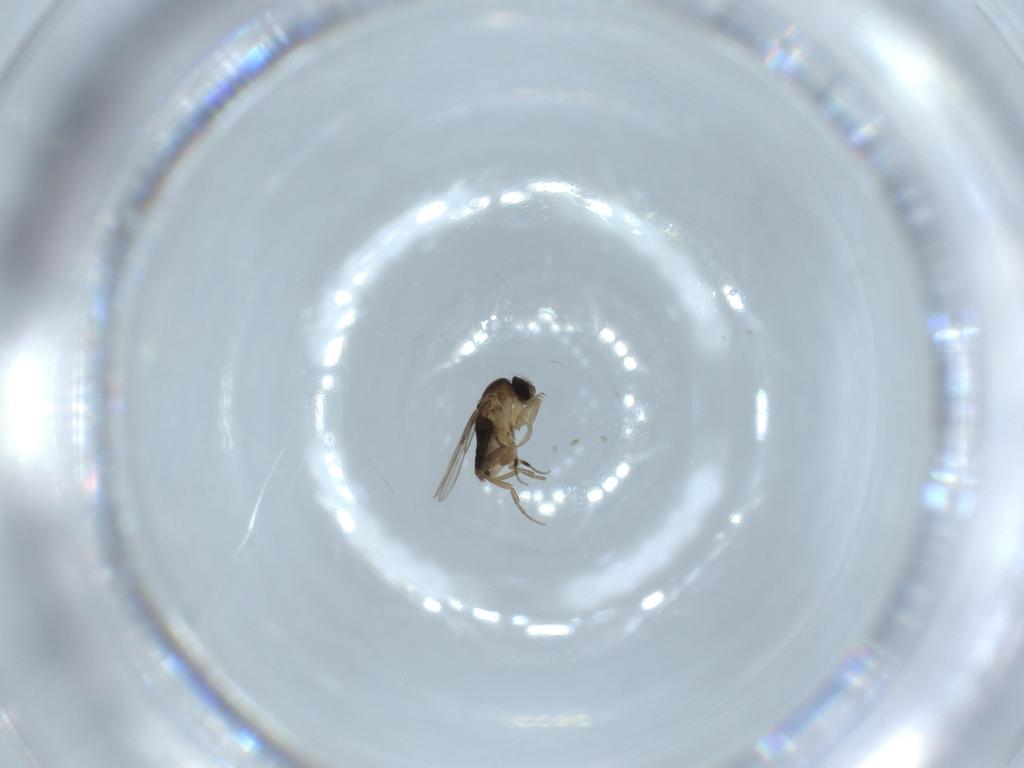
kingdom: Animalia
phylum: Arthropoda
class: Insecta
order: Diptera
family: Phoridae
